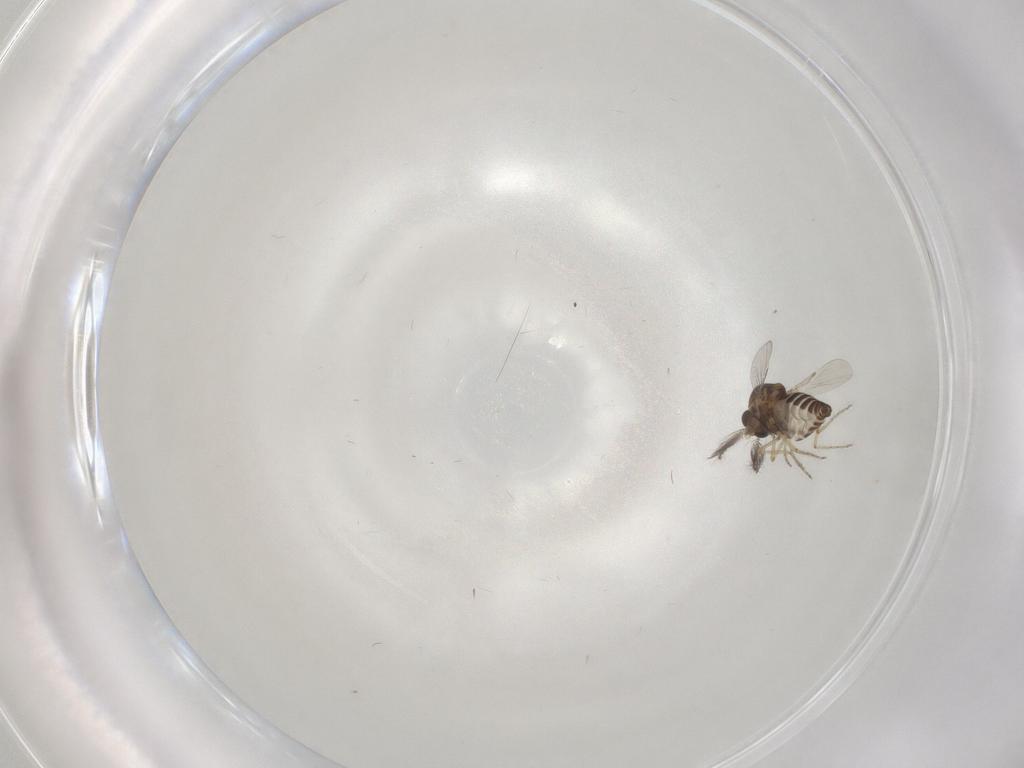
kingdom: Animalia
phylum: Arthropoda
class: Insecta
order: Diptera
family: Ceratopogonidae
